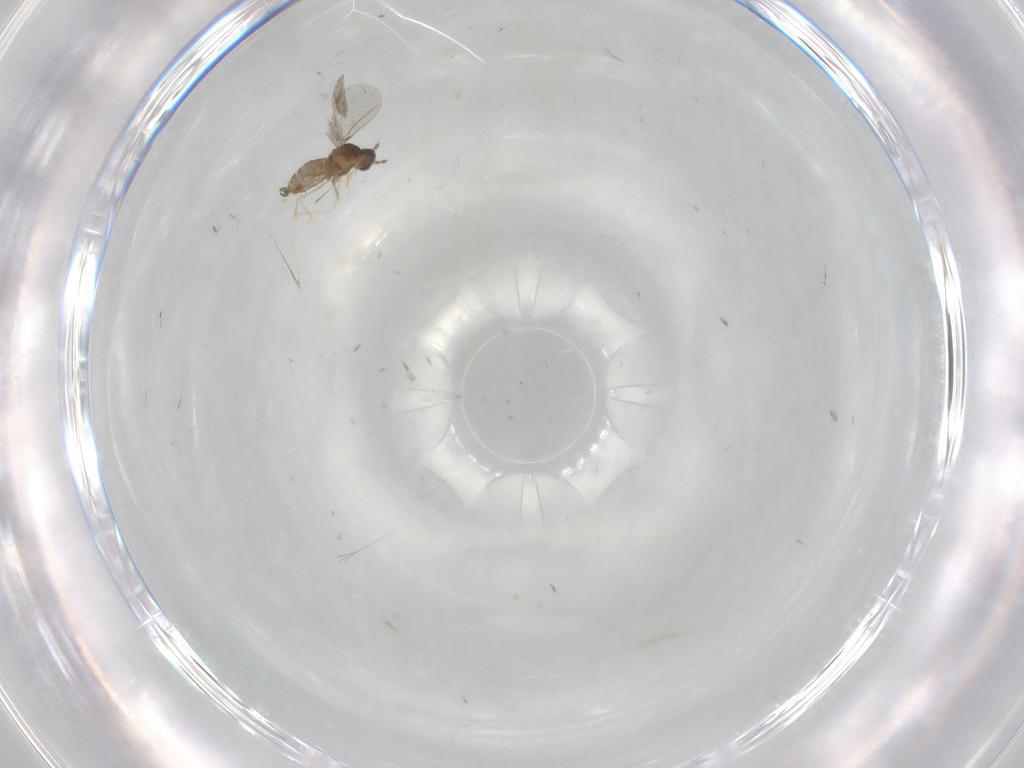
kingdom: Animalia
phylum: Arthropoda
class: Insecta
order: Diptera
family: Cecidomyiidae
